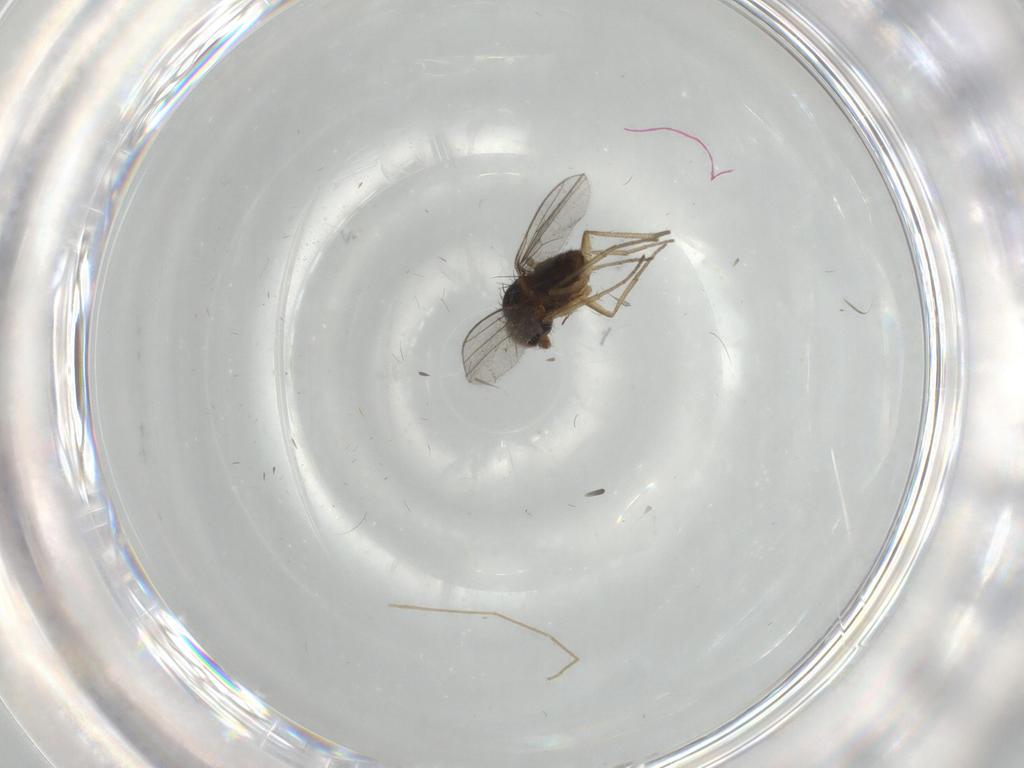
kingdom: Animalia
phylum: Arthropoda
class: Insecta
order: Diptera
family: Dolichopodidae
